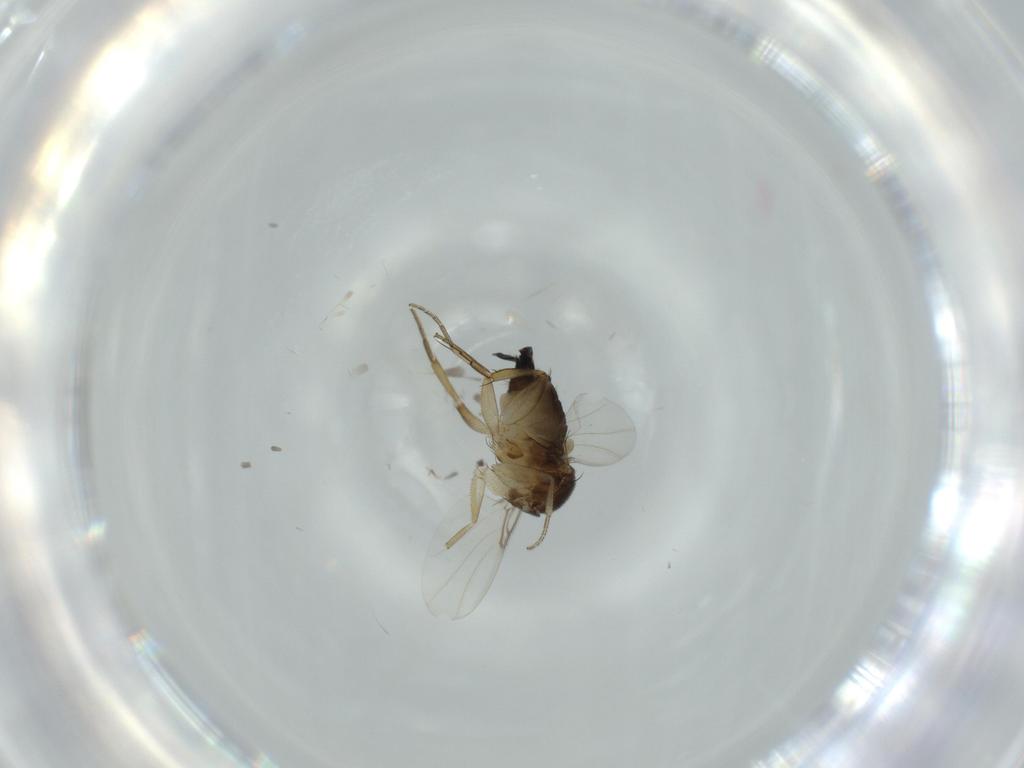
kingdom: Animalia
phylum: Arthropoda
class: Insecta
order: Diptera
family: Phoridae
